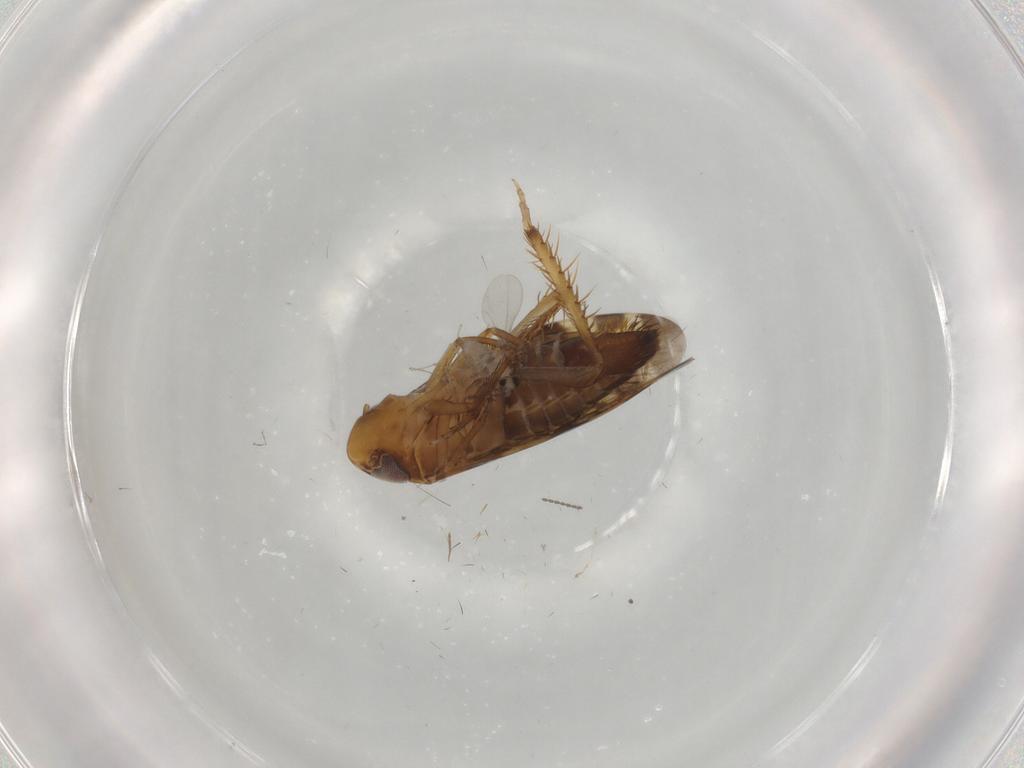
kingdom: Animalia
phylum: Arthropoda
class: Insecta
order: Hemiptera
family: Cicadellidae
